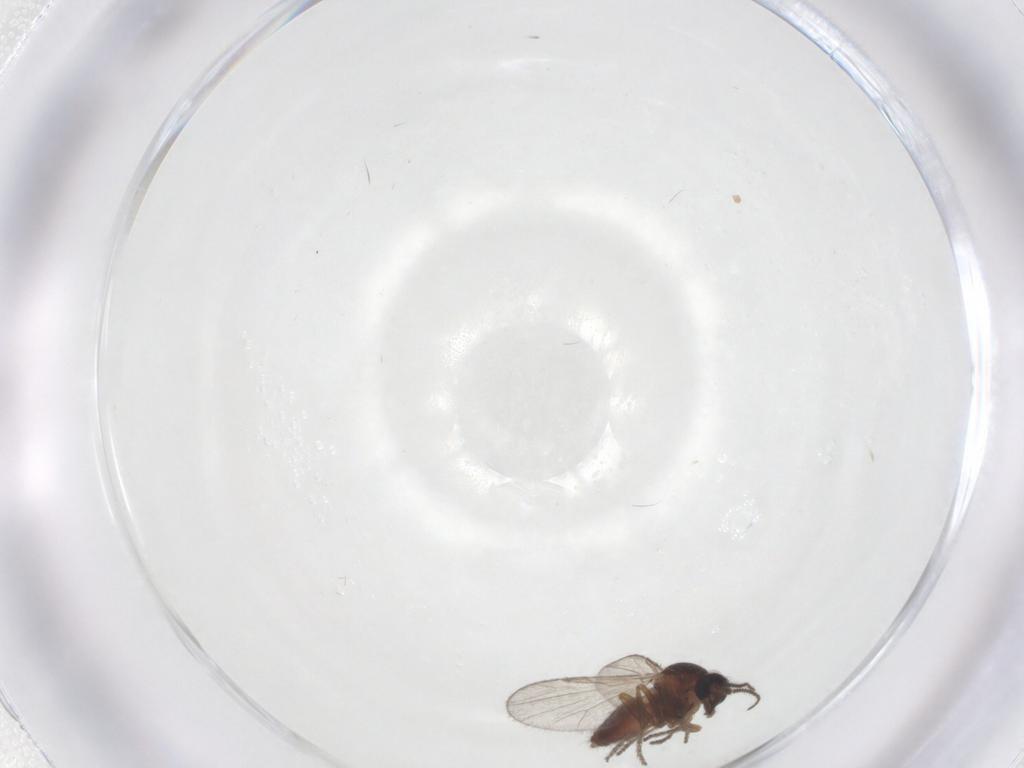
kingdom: Animalia
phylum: Arthropoda
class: Insecta
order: Diptera
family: Ceratopogonidae
